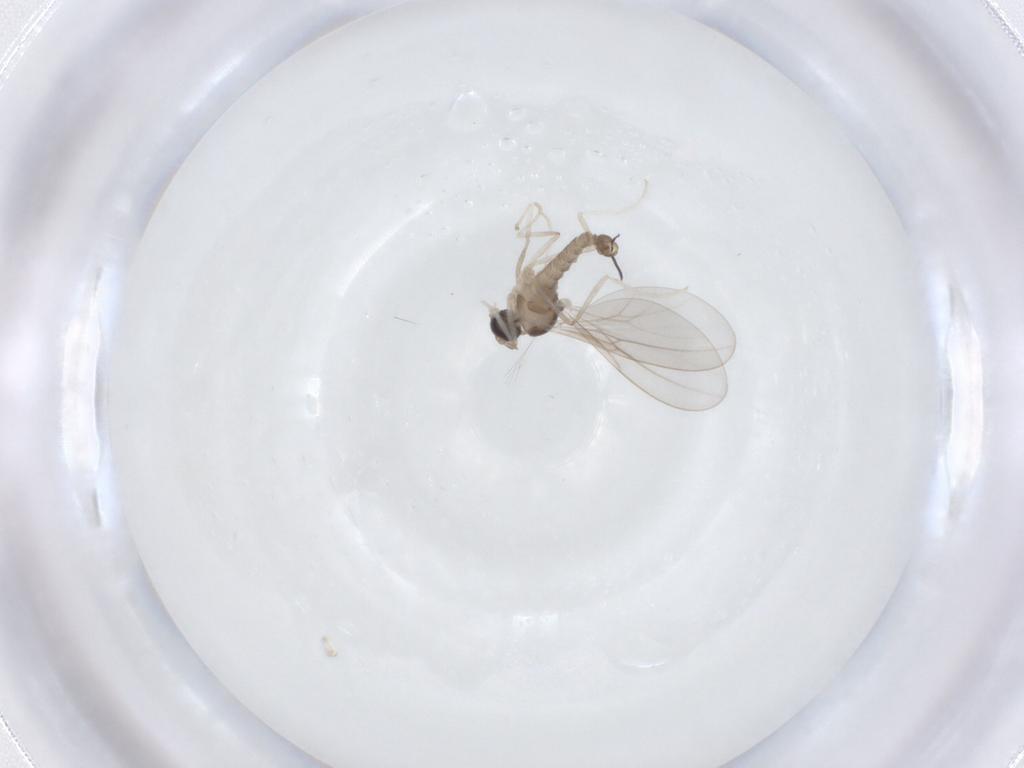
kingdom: Animalia
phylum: Arthropoda
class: Insecta
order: Diptera
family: Cecidomyiidae
